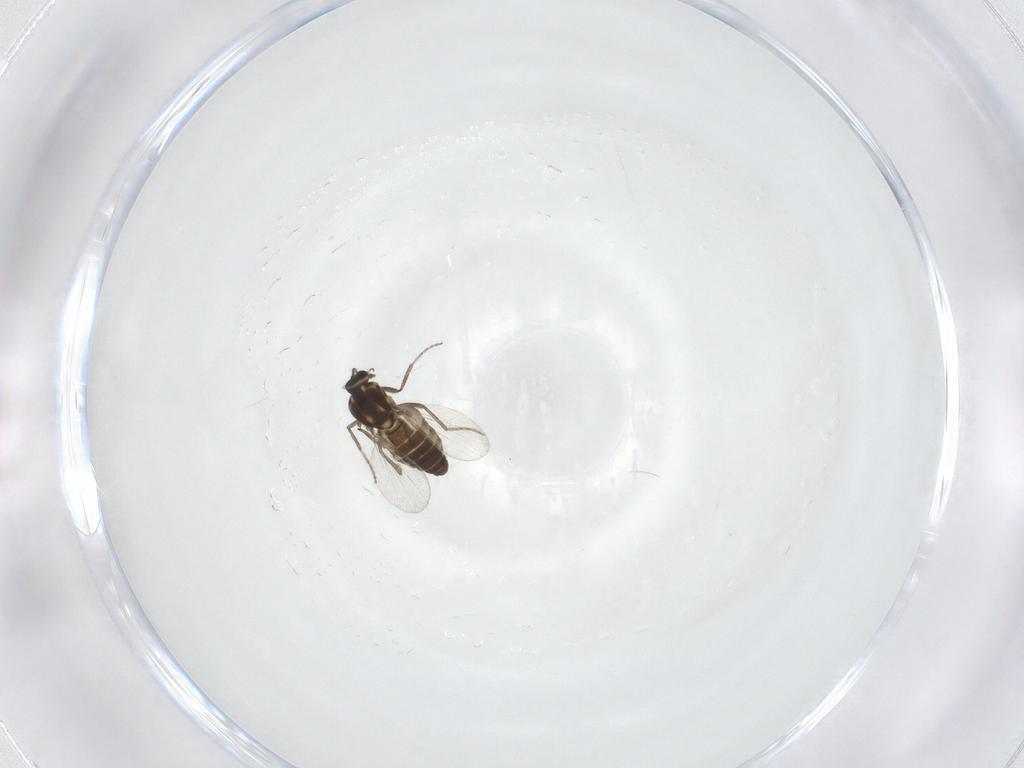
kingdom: Animalia
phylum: Arthropoda
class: Insecta
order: Diptera
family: Ceratopogonidae
